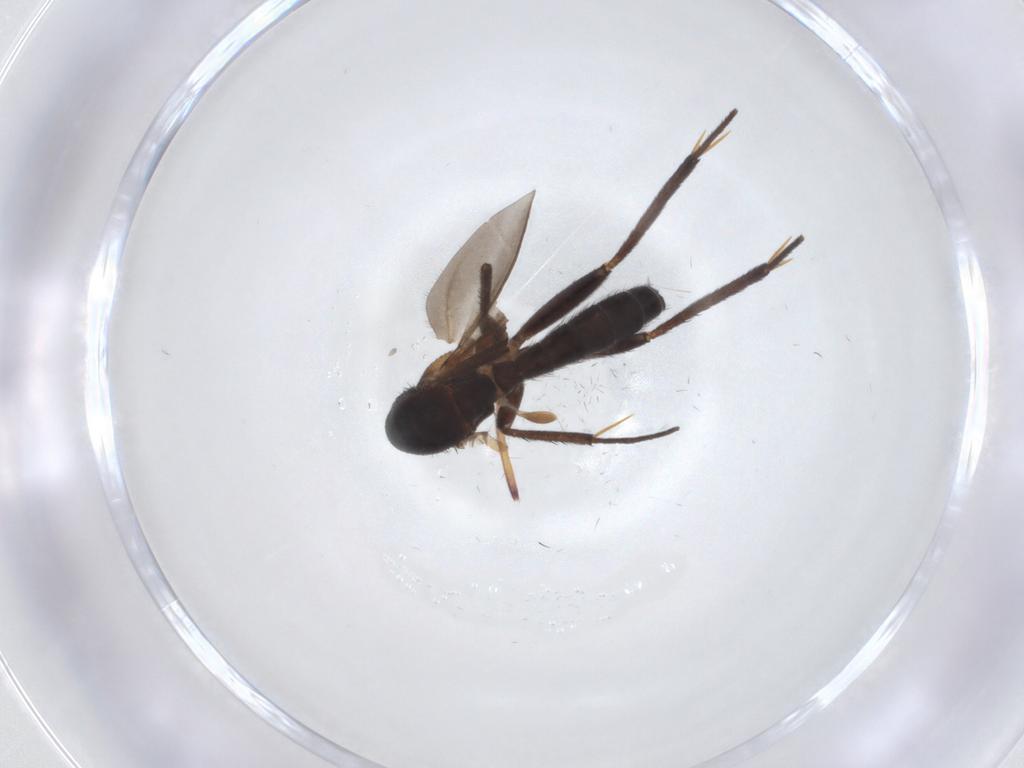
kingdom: Animalia
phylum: Arthropoda
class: Insecta
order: Diptera
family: Mycetophilidae
